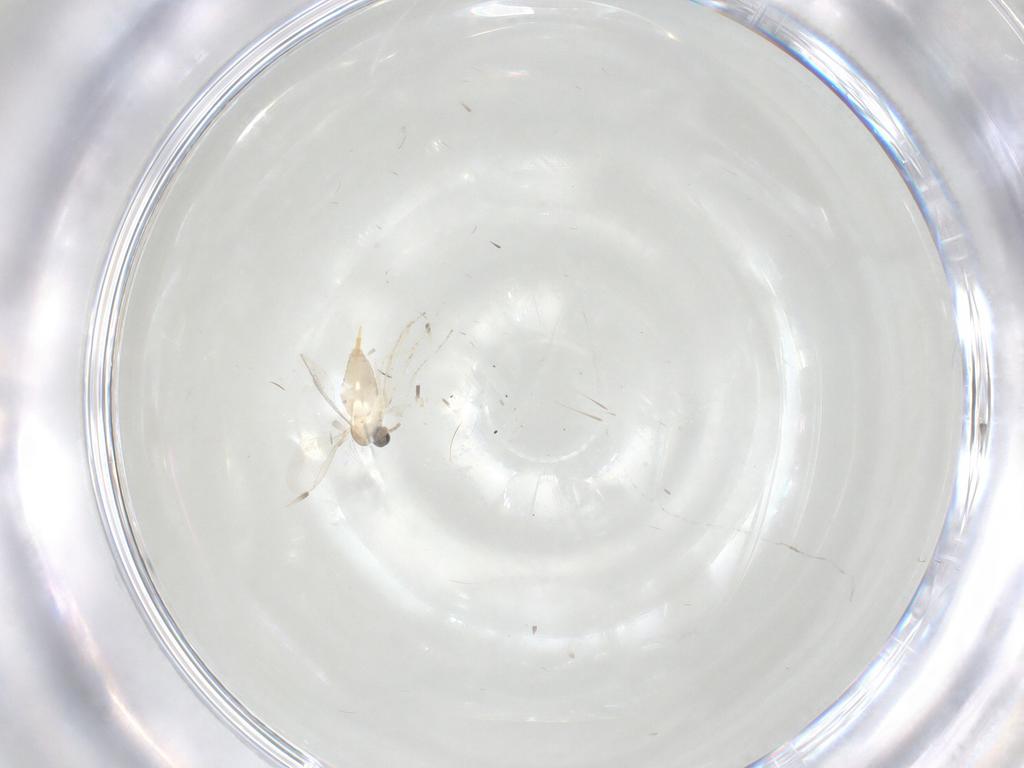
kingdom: Animalia
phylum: Arthropoda
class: Insecta
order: Diptera
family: Cecidomyiidae
